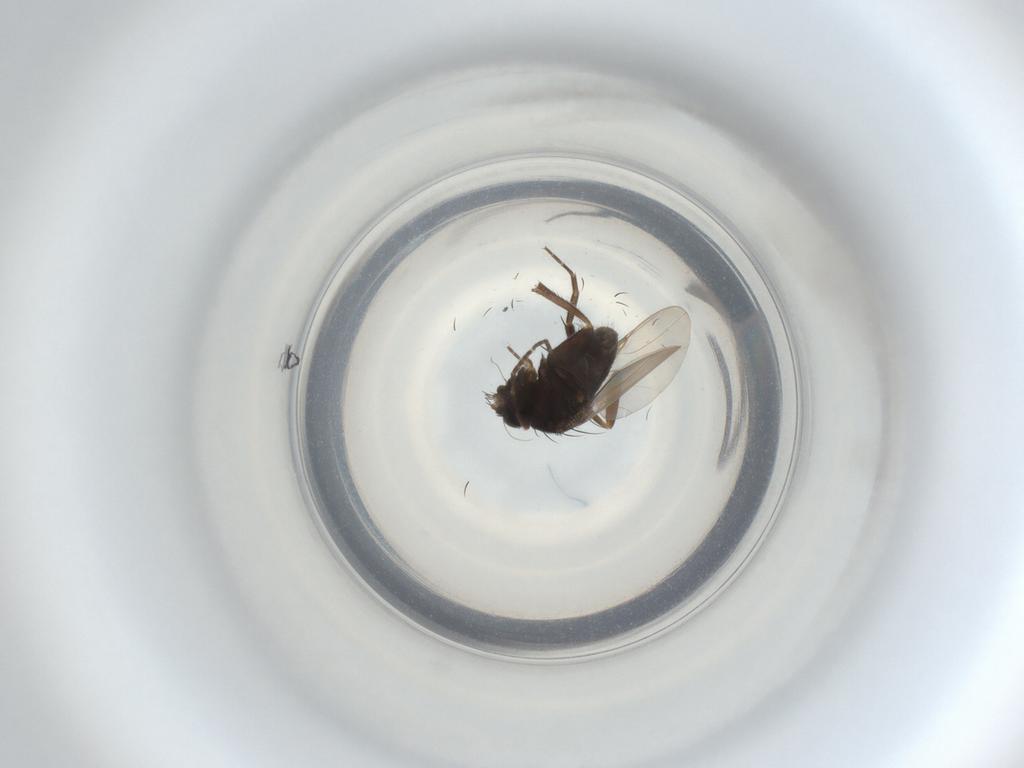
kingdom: Animalia
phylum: Arthropoda
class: Insecta
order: Diptera
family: Phoridae
